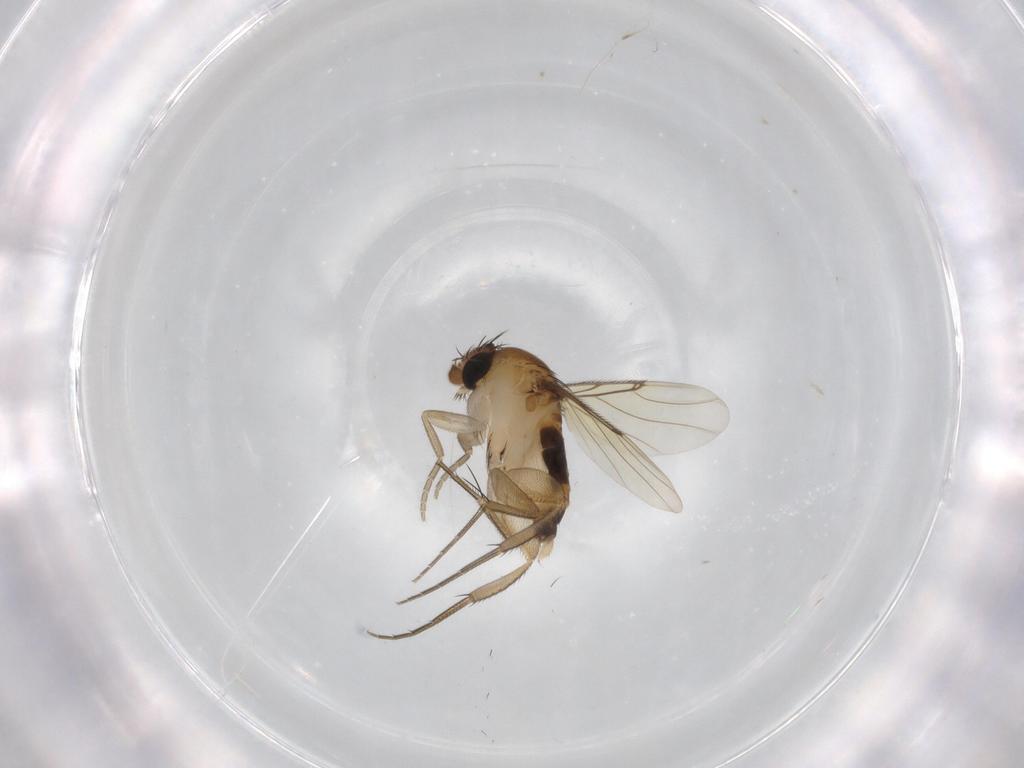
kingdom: Animalia
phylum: Arthropoda
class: Insecta
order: Diptera
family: Phoridae
